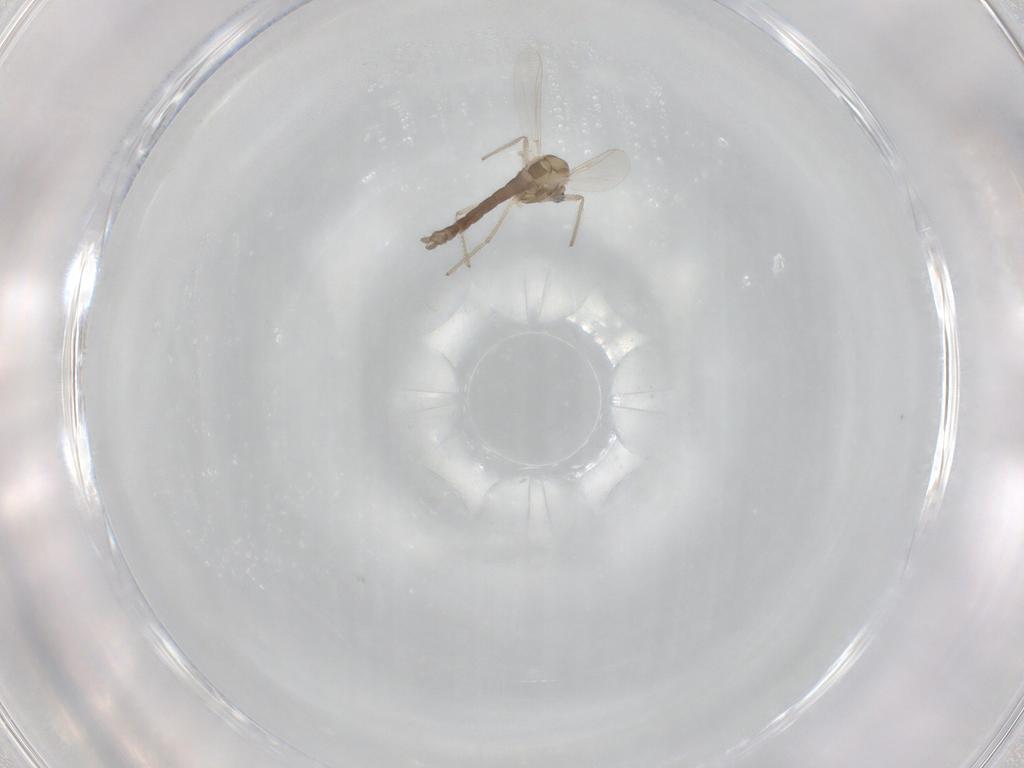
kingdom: Animalia
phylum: Arthropoda
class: Insecta
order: Diptera
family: Chironomidae
